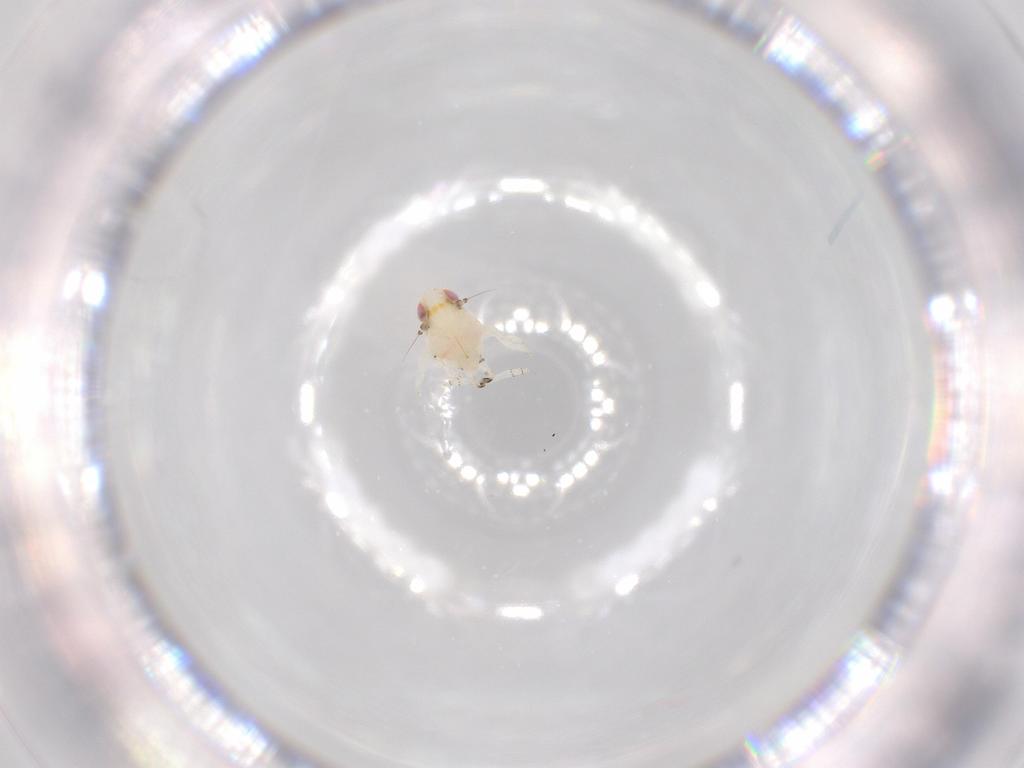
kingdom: Animalia
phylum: Arthropoda
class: Insecta
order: Hemiptera
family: Nogodinidae
